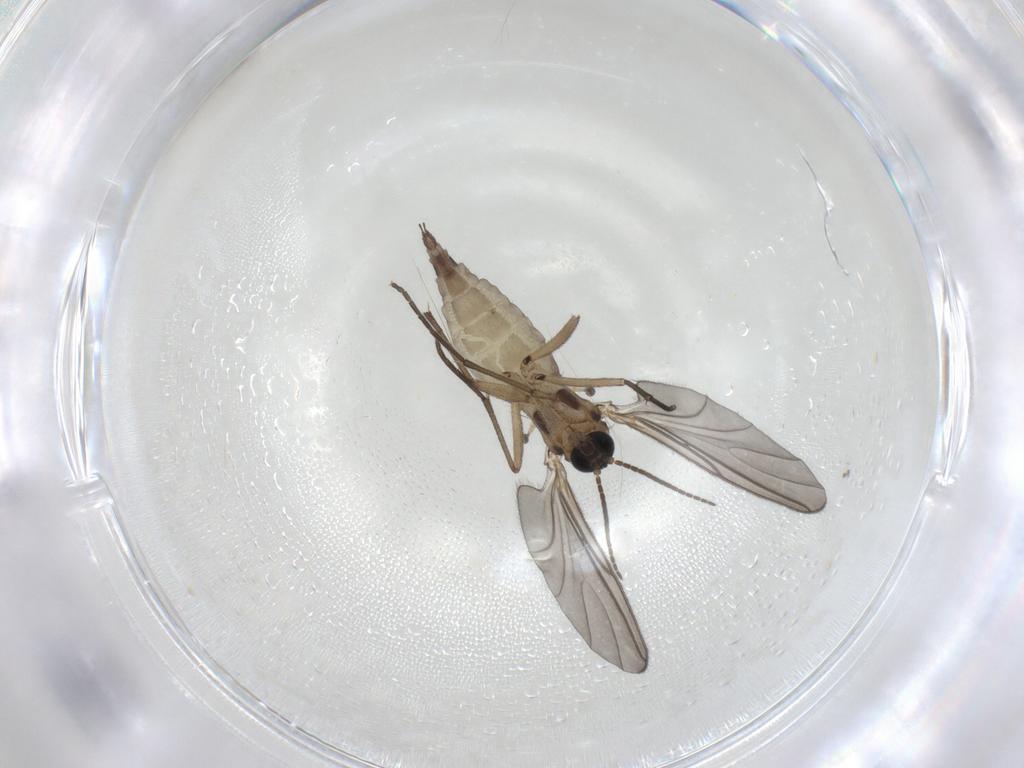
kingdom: Animalia
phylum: Arthropoda
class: Insecta
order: Diptera
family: Sciaridae
